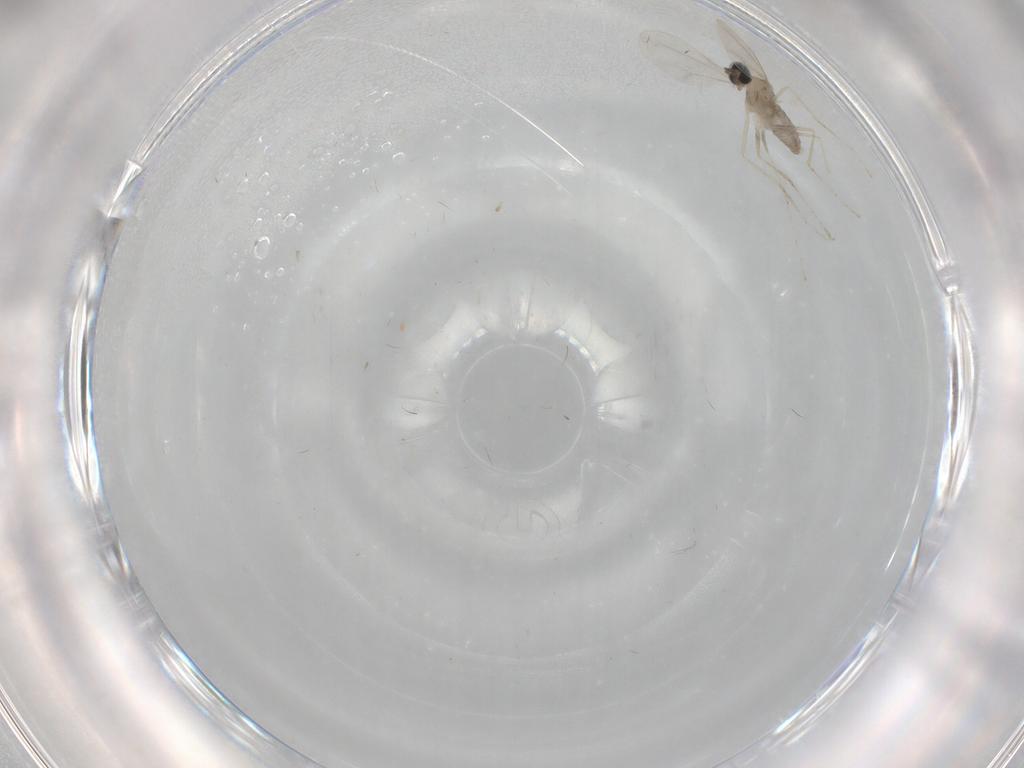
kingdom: Animalia
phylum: Arthropoda
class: Insecta
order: Diptera
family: Cecidomyiidae
